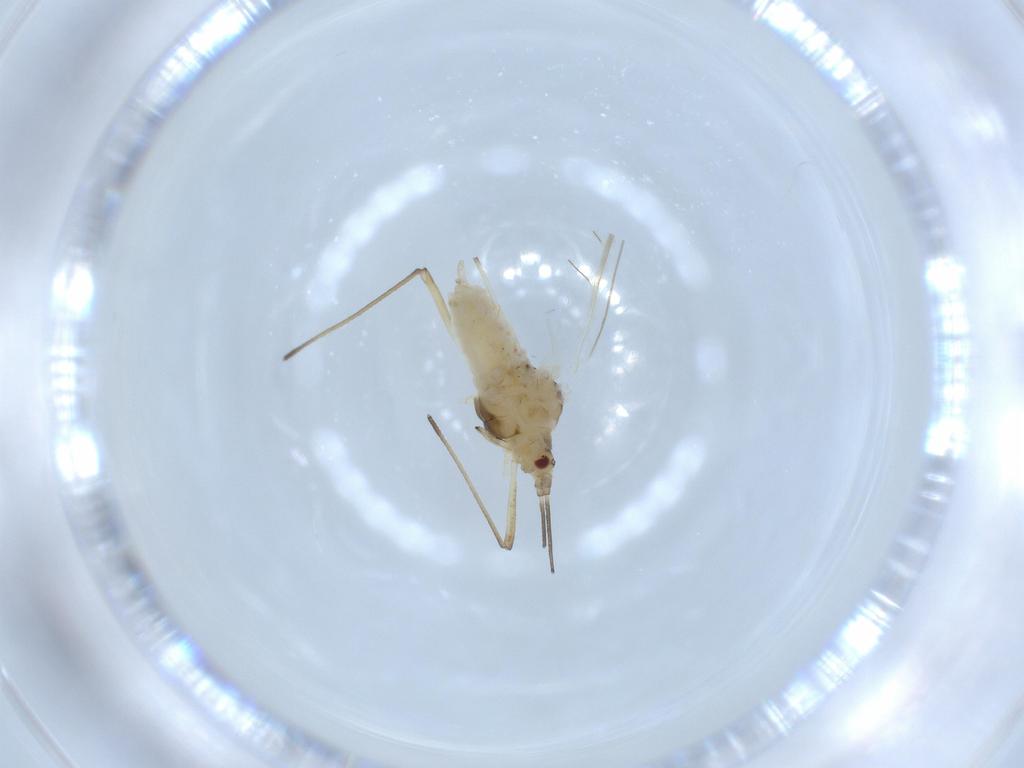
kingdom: Animalia
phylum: Arthropoda
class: Insecta
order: Hemiptera
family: Aphididae
